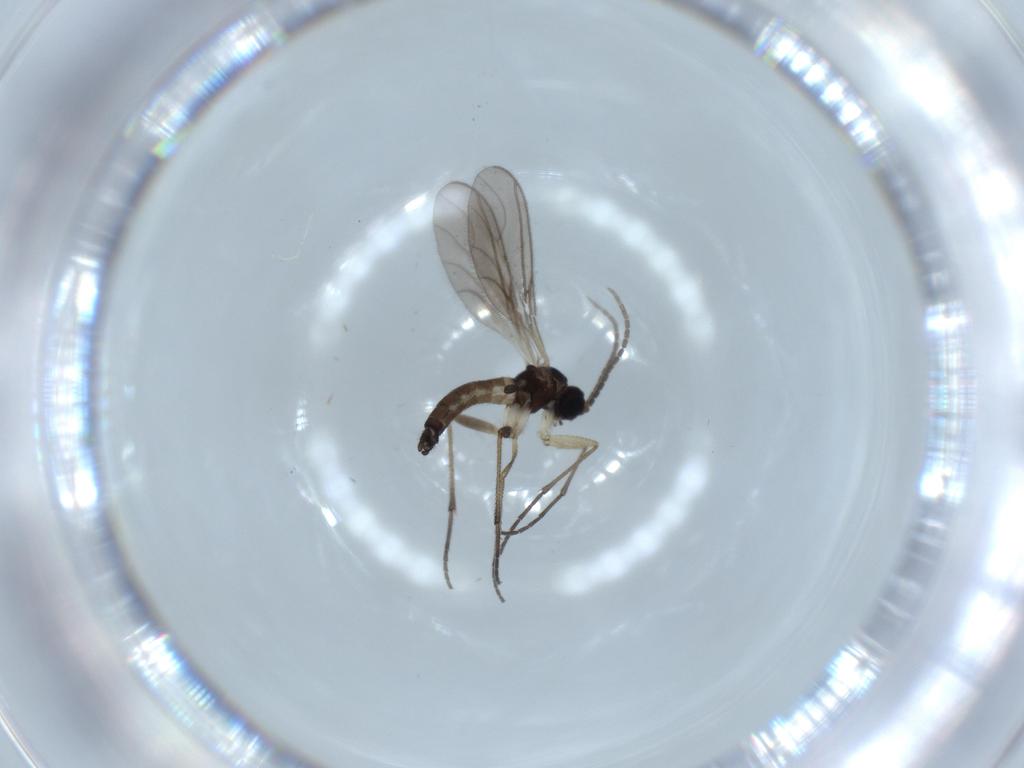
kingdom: Animalia
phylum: Arthropoda
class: Insecta
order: Diptera
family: Sciaridae
